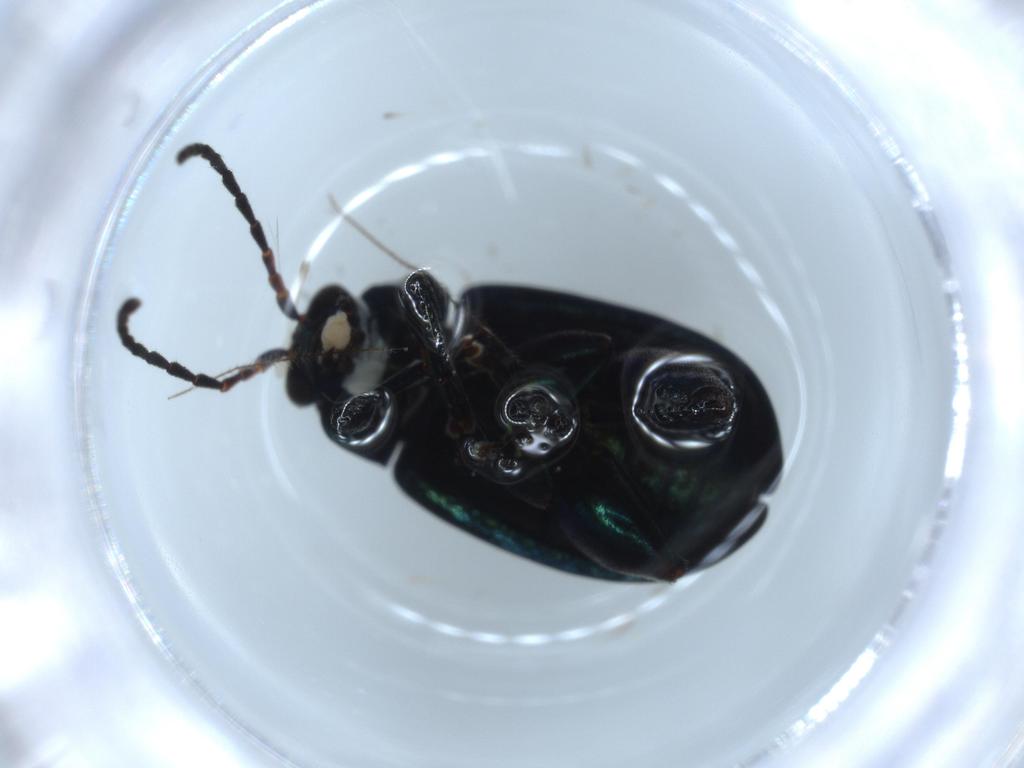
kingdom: Animalia
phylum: Arthropoda
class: Insecta
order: Coleoptera
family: Chrysomelidae
